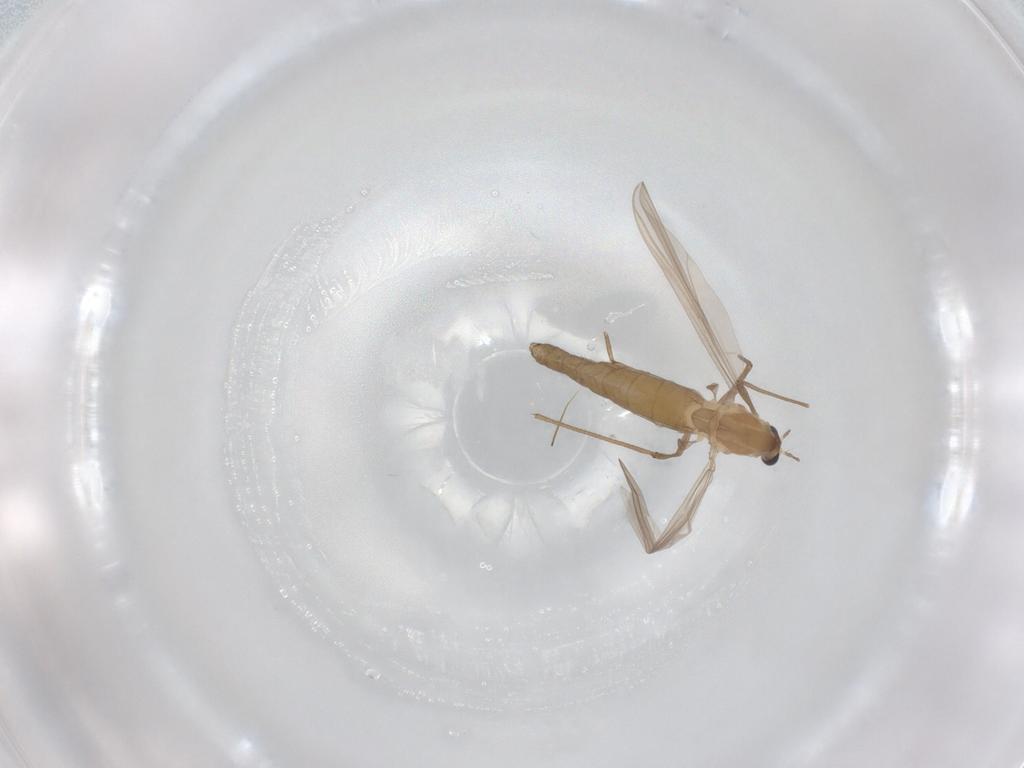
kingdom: Animalia
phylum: Arthropoda
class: Insecta
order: Diptera
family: Chironomidae
